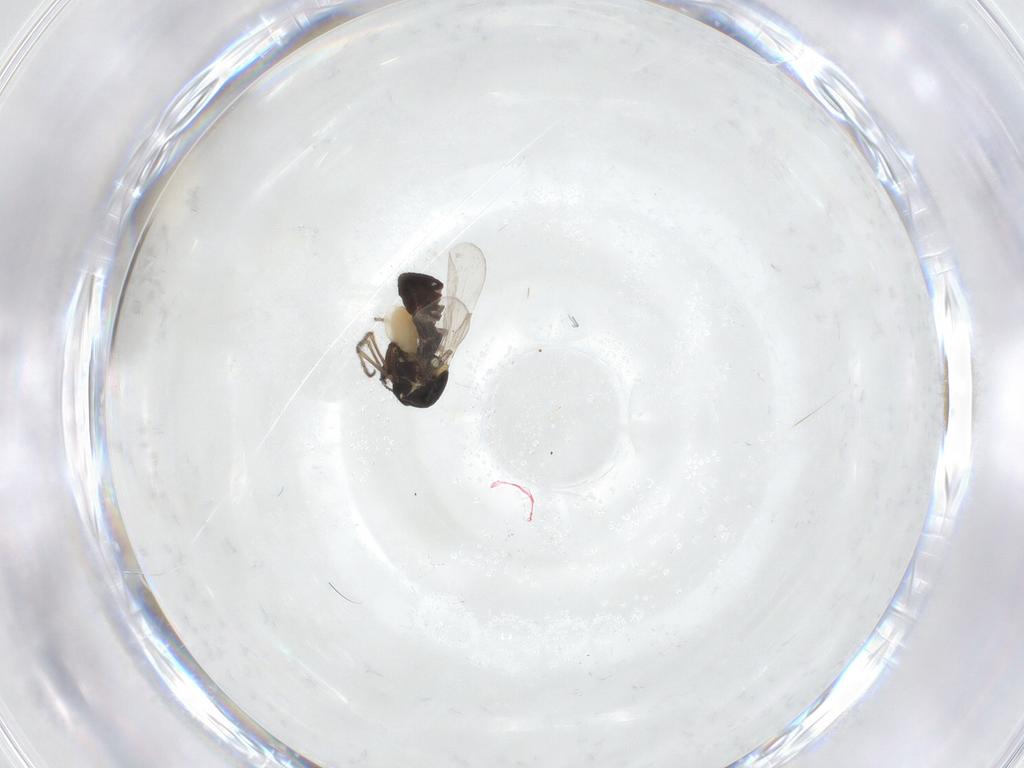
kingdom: Animalia
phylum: Arthropoda
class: Insecta
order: Diptera
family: Ceratopogonidae
